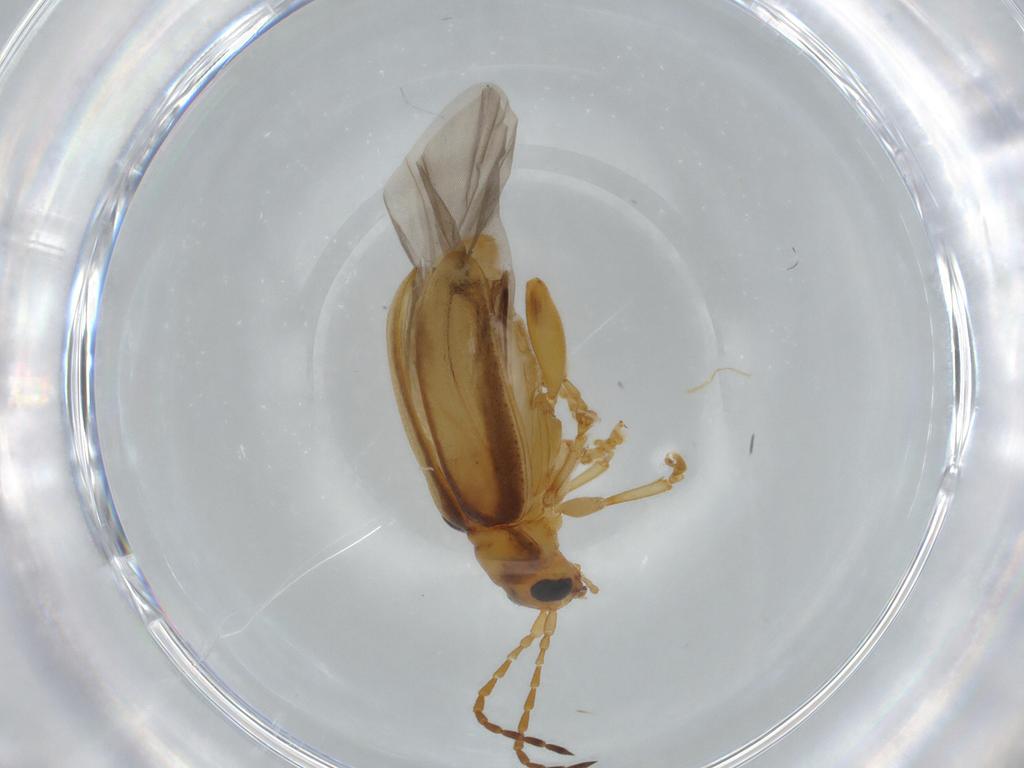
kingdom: Animalia
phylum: Arthropoda
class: Insecta
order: Coleoptera
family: Chrysomelidae
